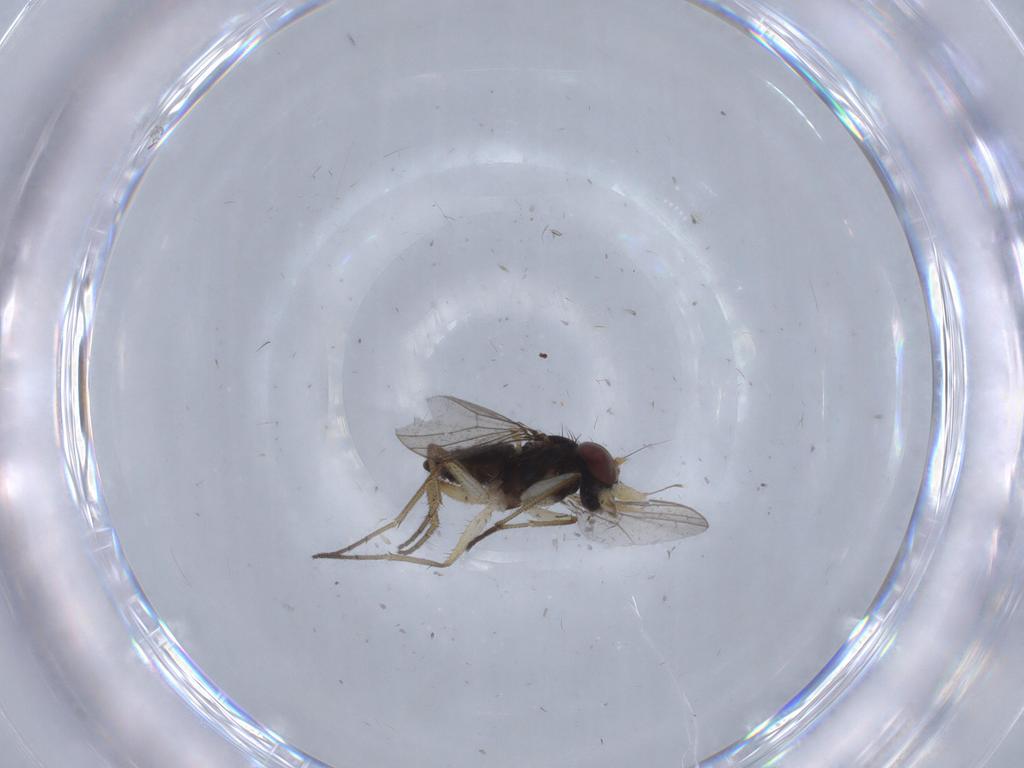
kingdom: Animalia
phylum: Arthropoda
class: Insecta
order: Diptera
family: Dolichopodidae
